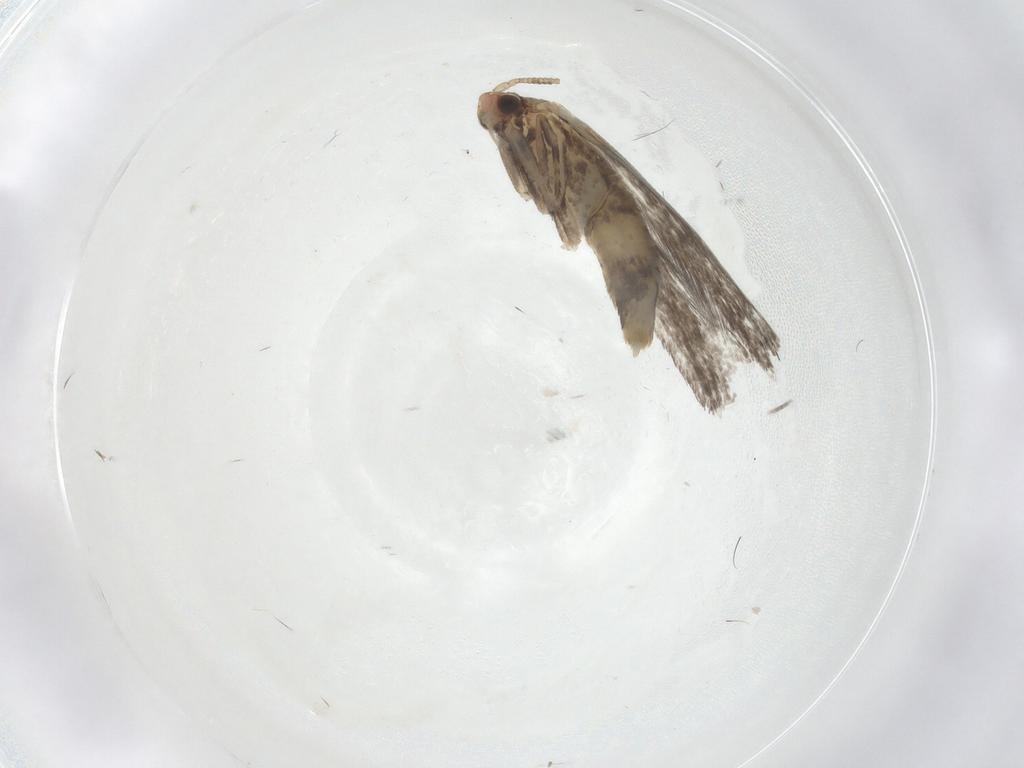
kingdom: Animalia
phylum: Arthropoda
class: Insecta
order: Lepidoptera
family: Tineidae
